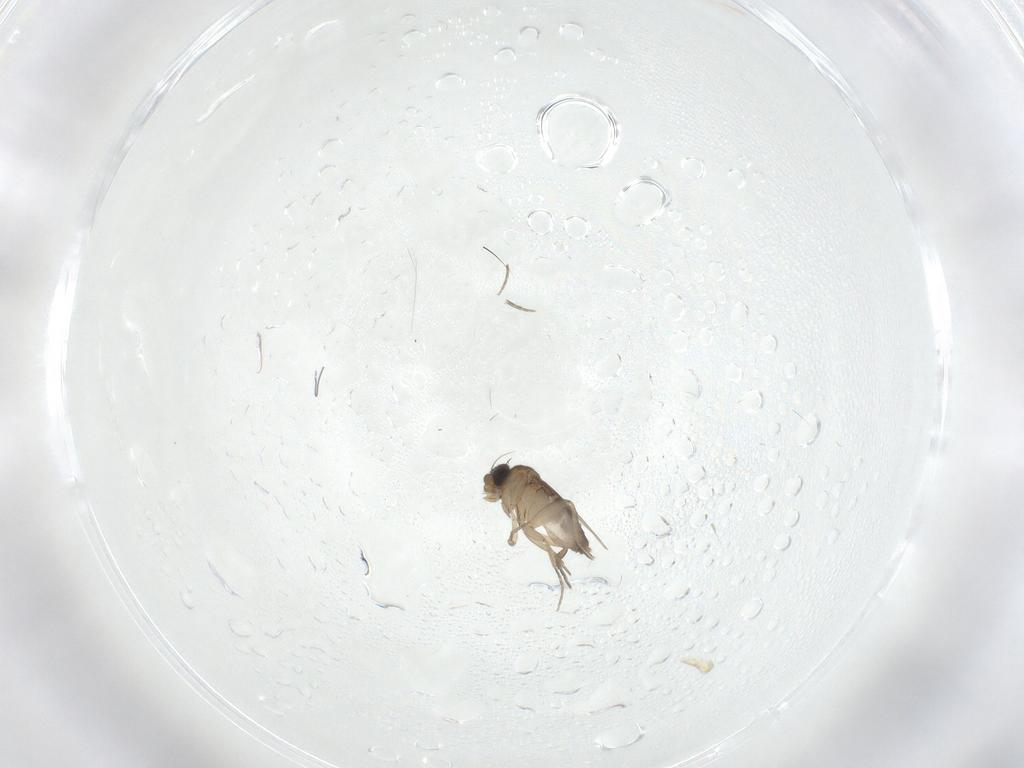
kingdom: Animalia
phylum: Arthropoda
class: Insecta
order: Diptera
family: Phoridae
